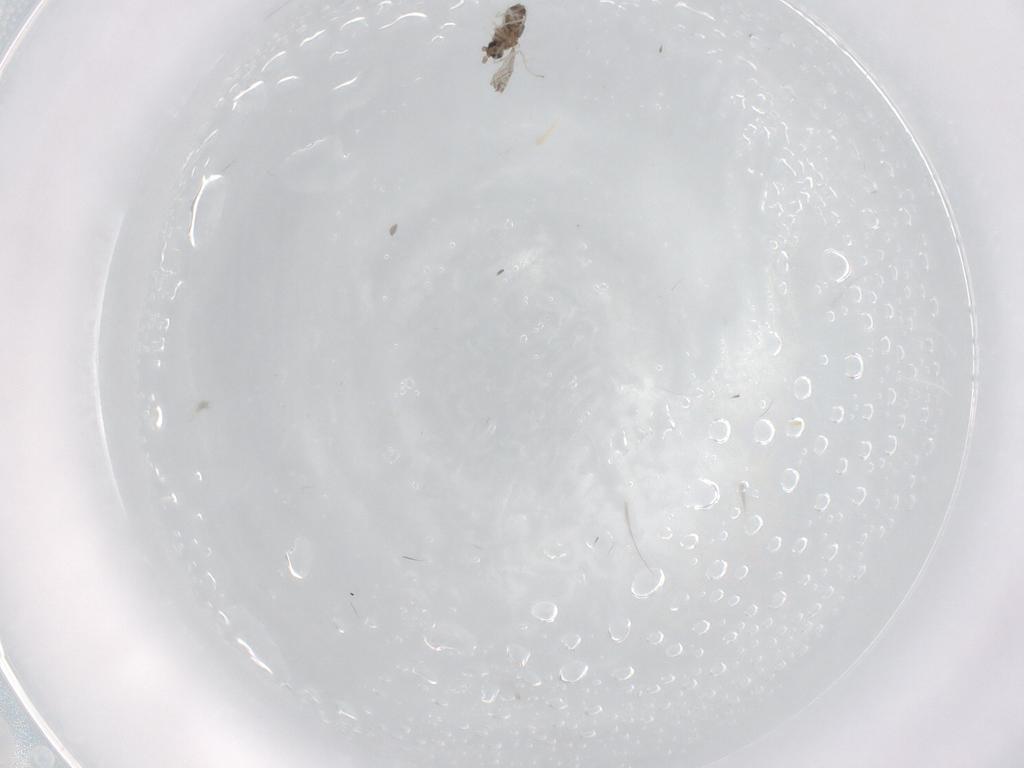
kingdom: Animalia
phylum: Arthropoda
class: Insecta
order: Diptera
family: Cecidomyiidae
